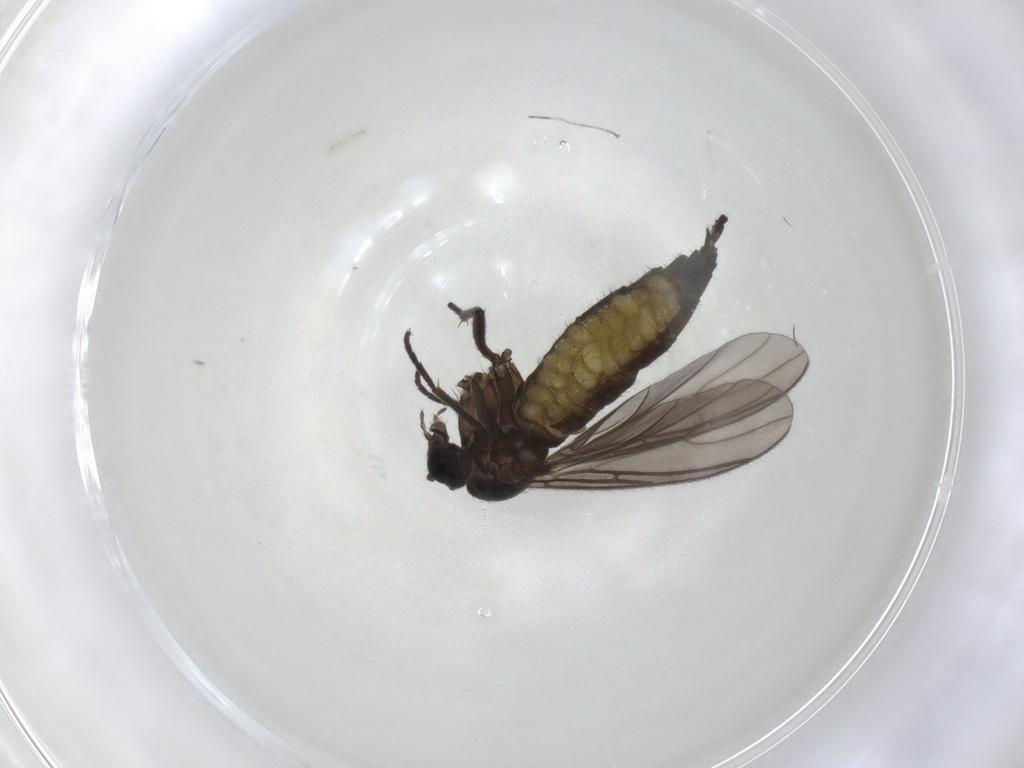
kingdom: Animalia
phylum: Arthropoda
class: Insecta
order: Diptera
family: Sciaridae
